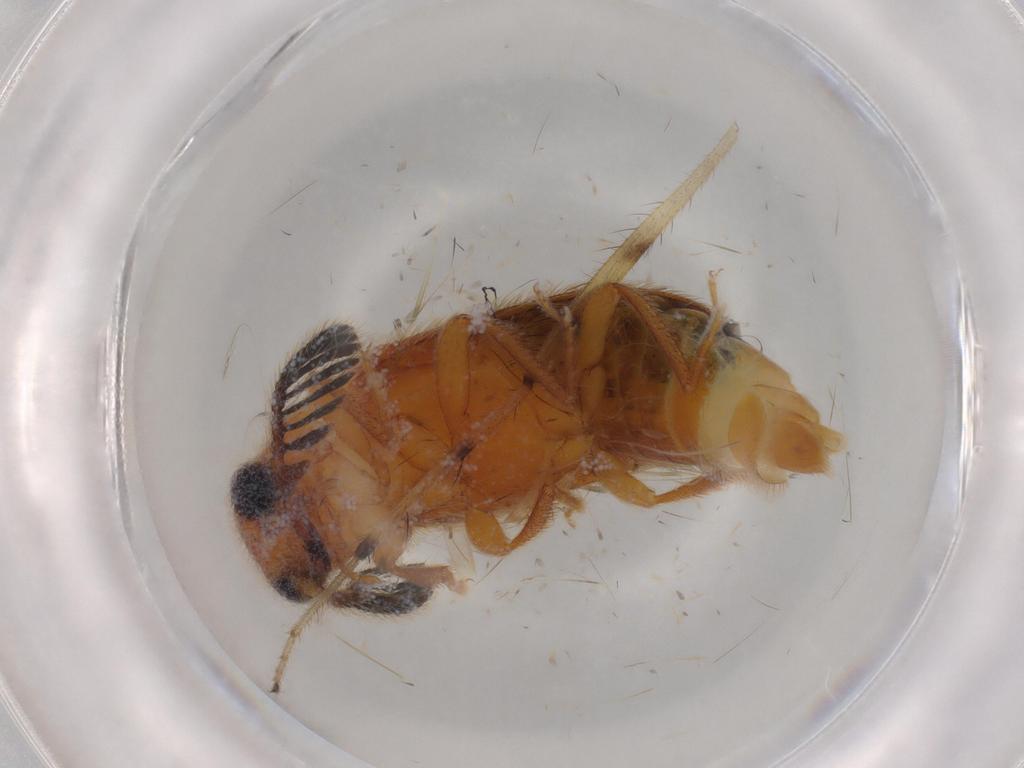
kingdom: Animalia
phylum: Arthropoda
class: Insecta
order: Coleoptera
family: Elateridae
